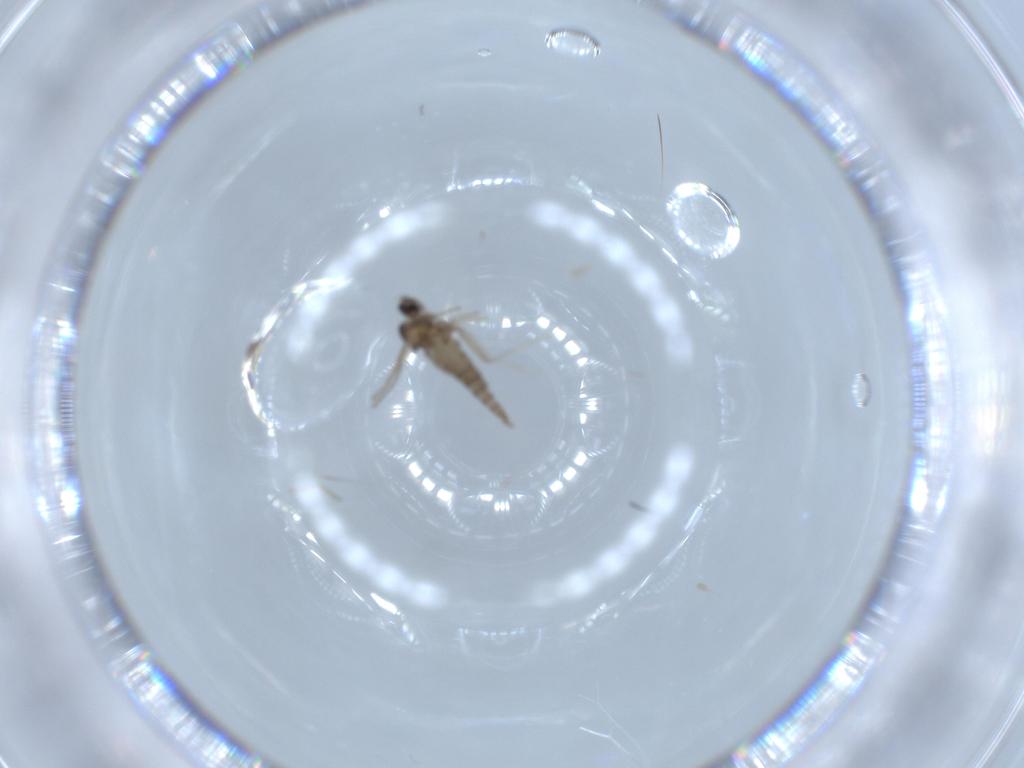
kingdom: Animalia
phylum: Arthropoda
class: Insecta
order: Diptera
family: Cecidomyiidae
